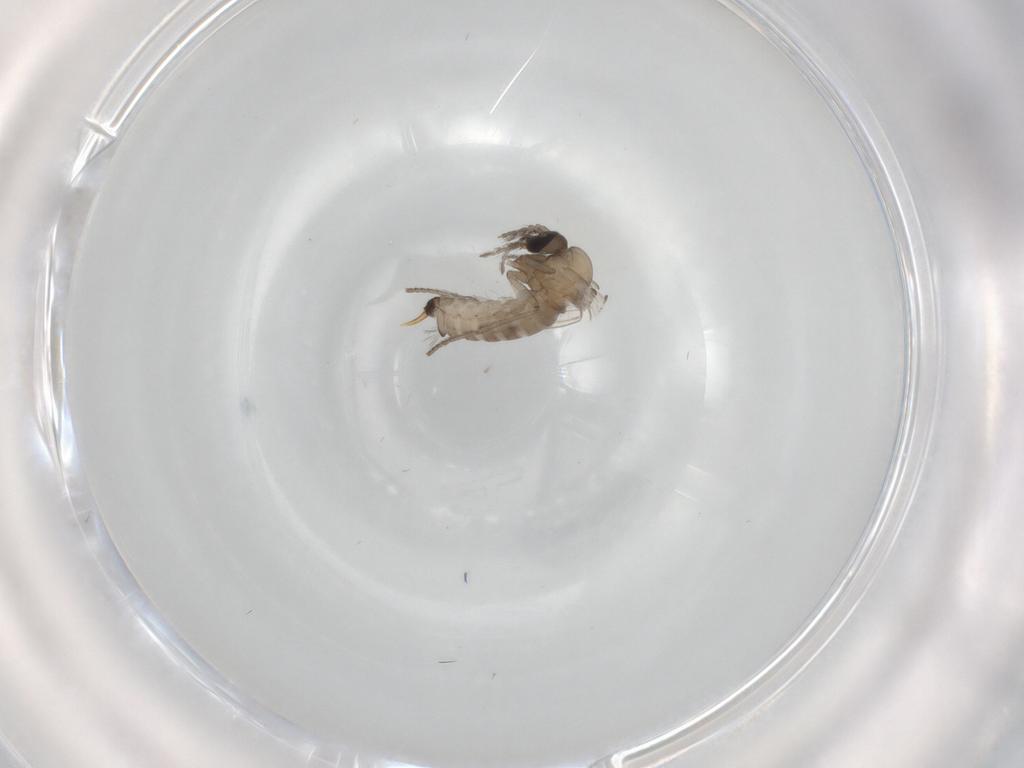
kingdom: Animalia
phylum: Arthropoda
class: Insecta
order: Diptera
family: Psychodidae
